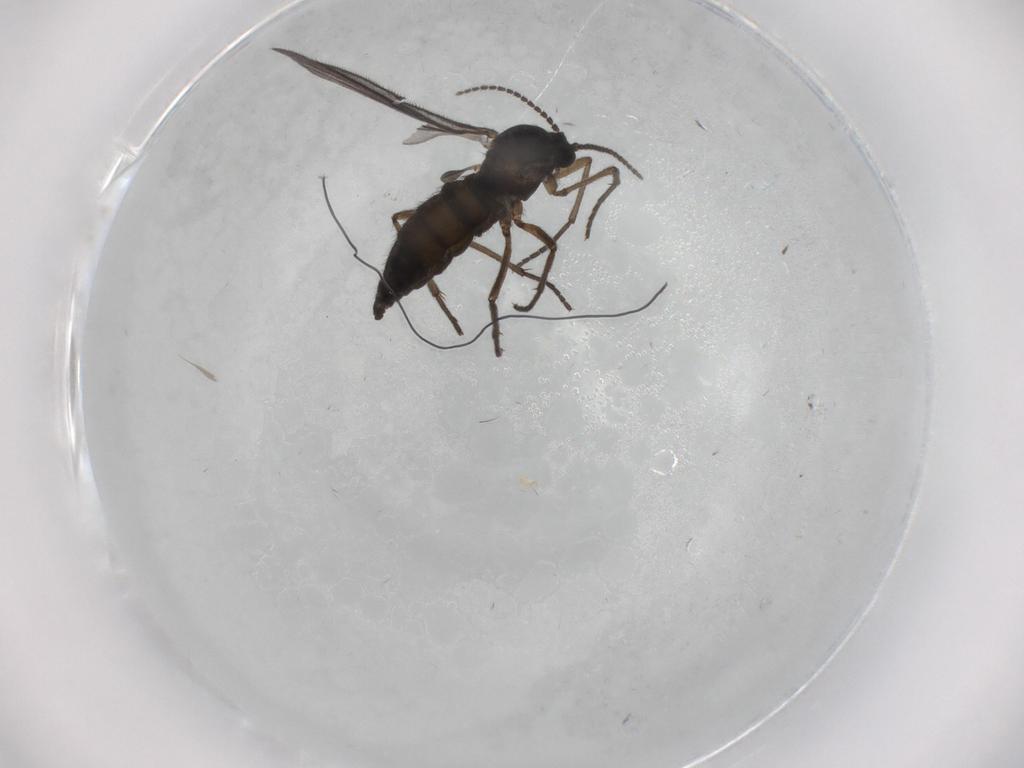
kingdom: Animalia
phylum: Arthropoda
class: Insecta
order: Diptera
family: Sciaridae
